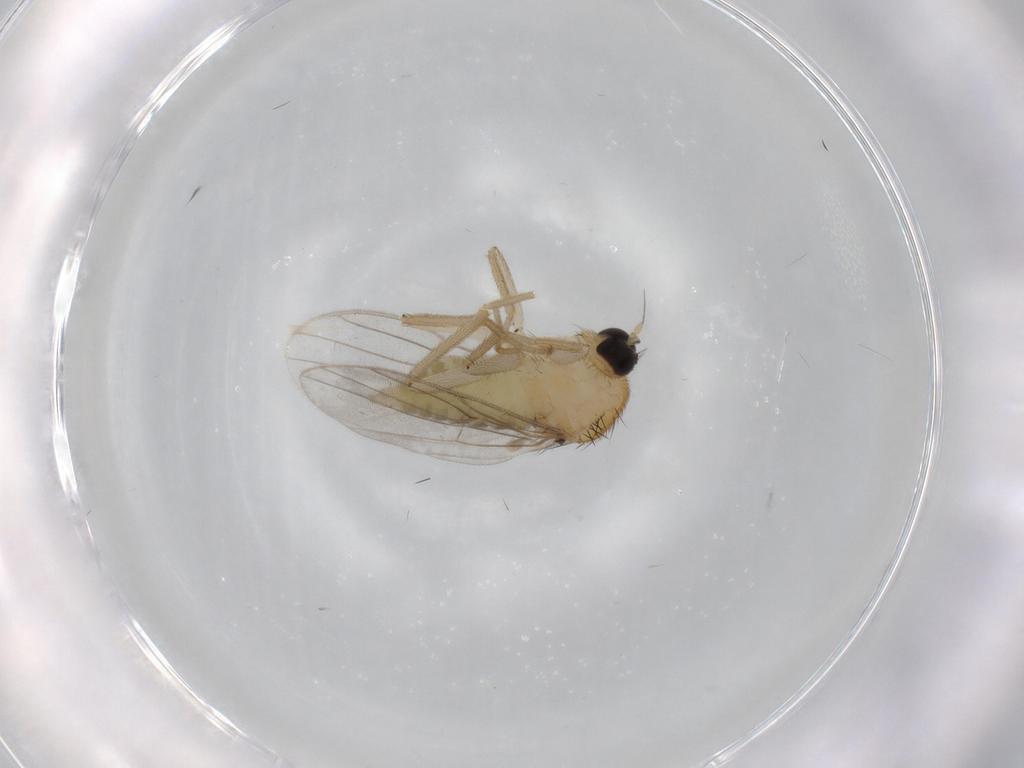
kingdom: Animalia
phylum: Arthropoda
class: Insecta
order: Diptera
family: Hybotidae
